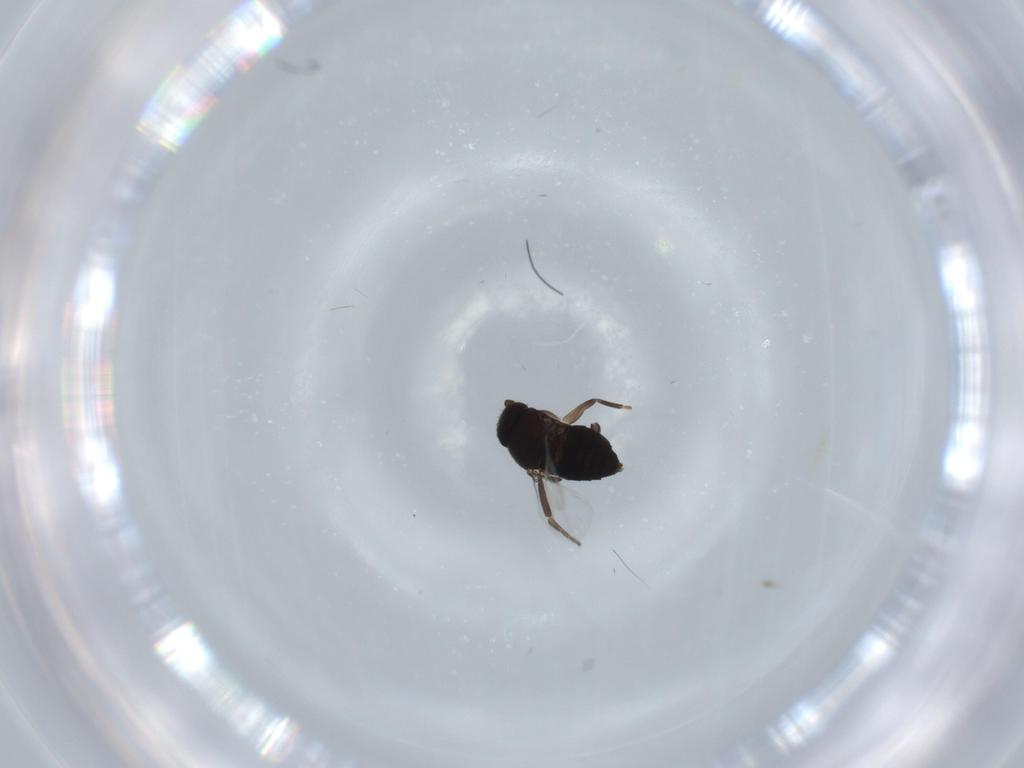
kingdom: Animalia
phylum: Arthropoda
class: Insecta
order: Diptera
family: Phoridae
